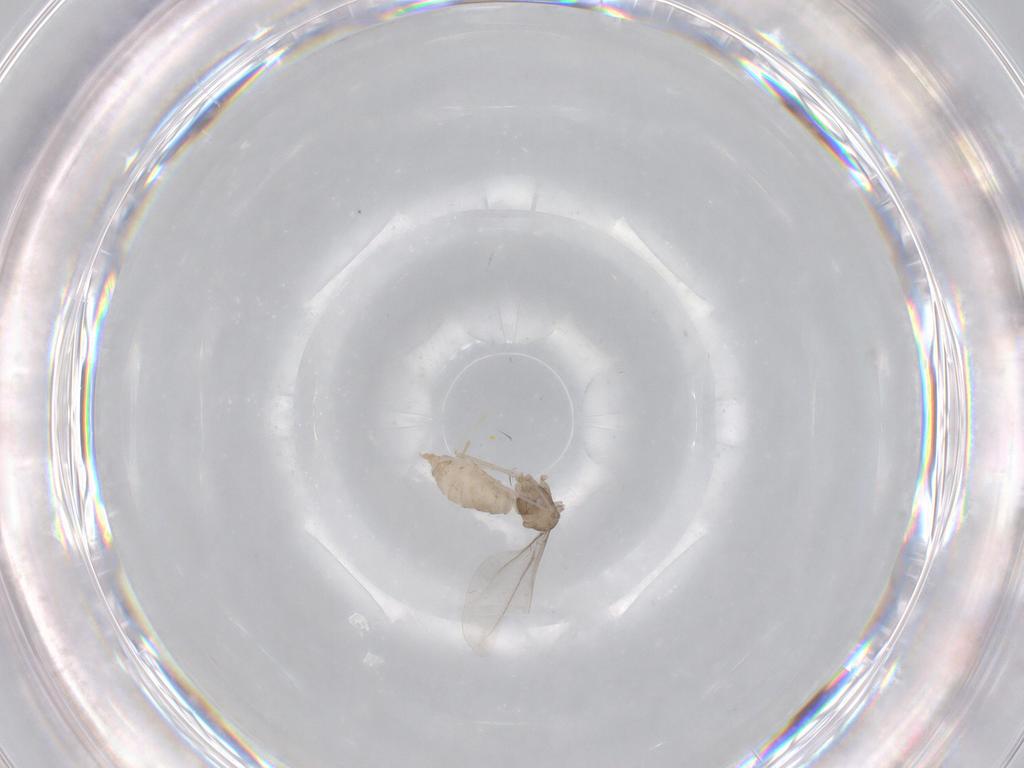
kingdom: Animalia
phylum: Arthropoda
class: Insecta
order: Diptera
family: Cecidomyiidae
